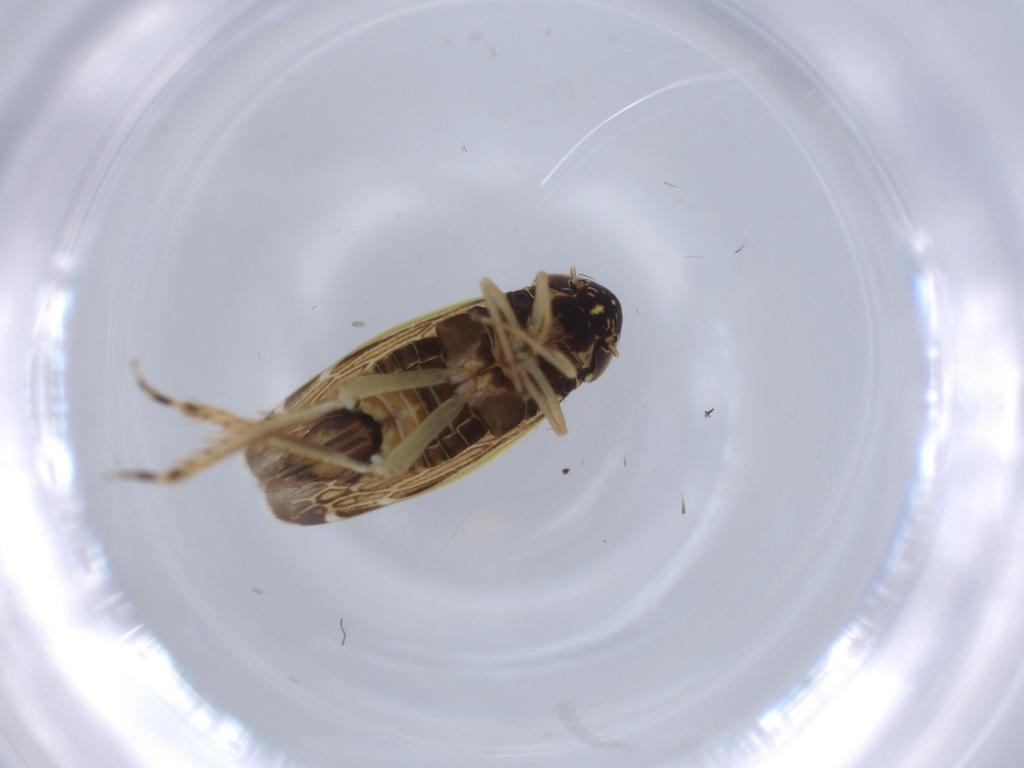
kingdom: Animalia
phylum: Arthropoda
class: Insecta
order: Hemiptera
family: Cicadellidae
